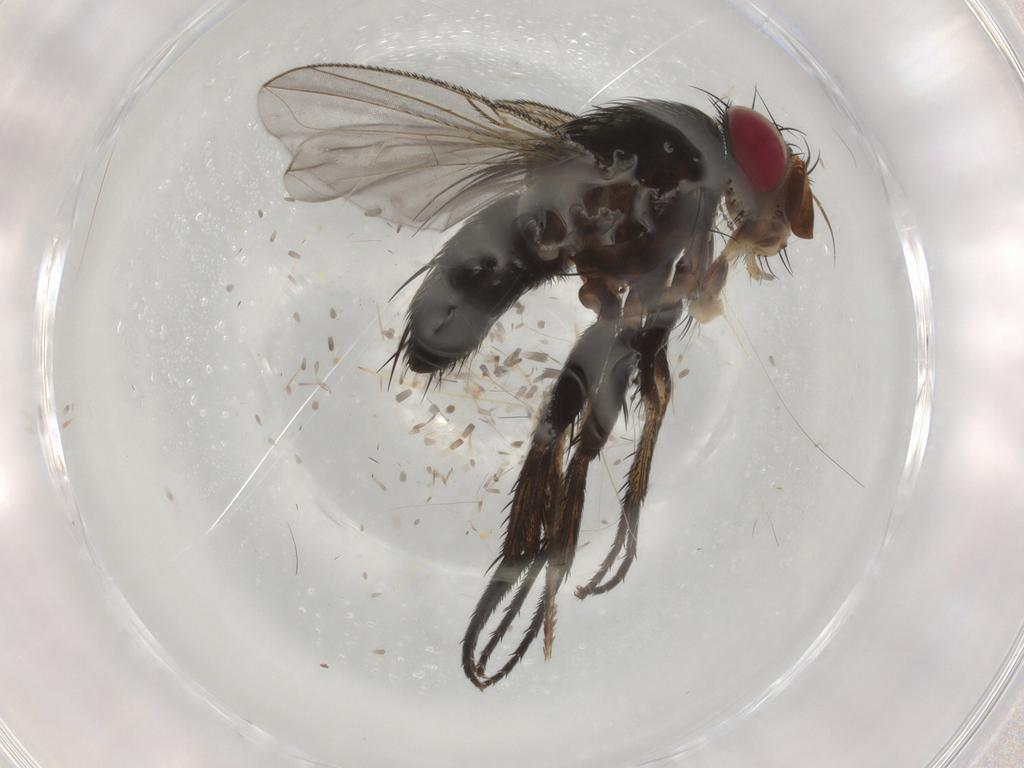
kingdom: Animalia
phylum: Arthropoda
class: Insecta
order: Diptera
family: Tachinidae
